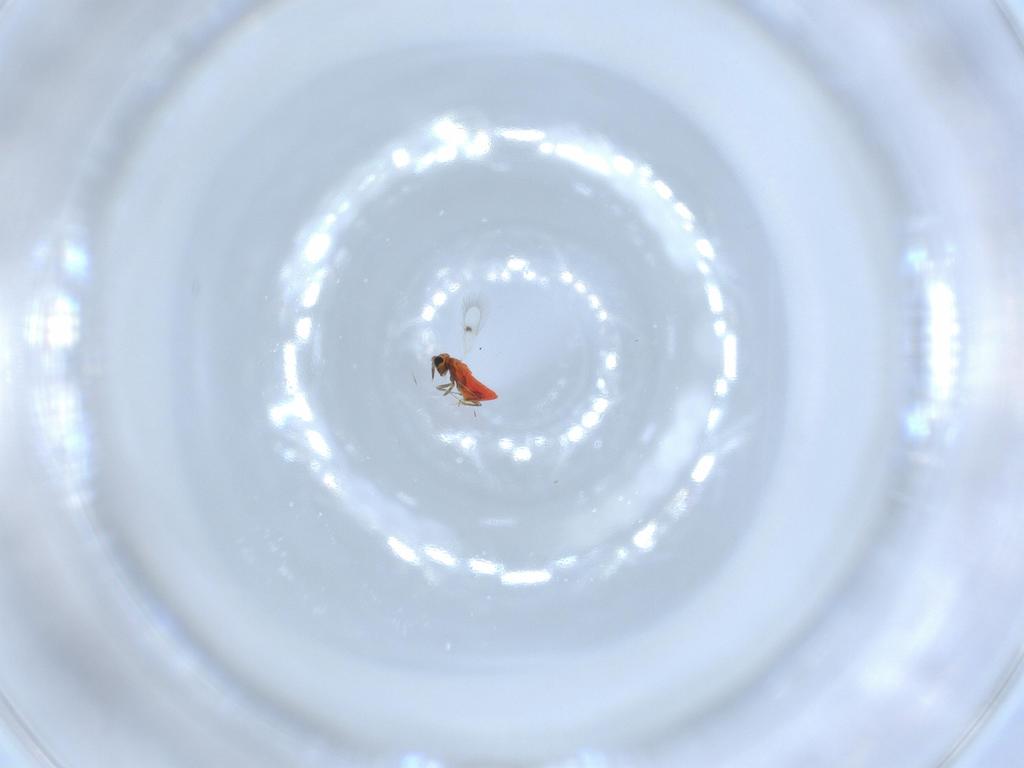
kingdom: Animalia
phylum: Arthropoda
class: Insecta
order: Hymenoptera
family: Trichogrammatidae
